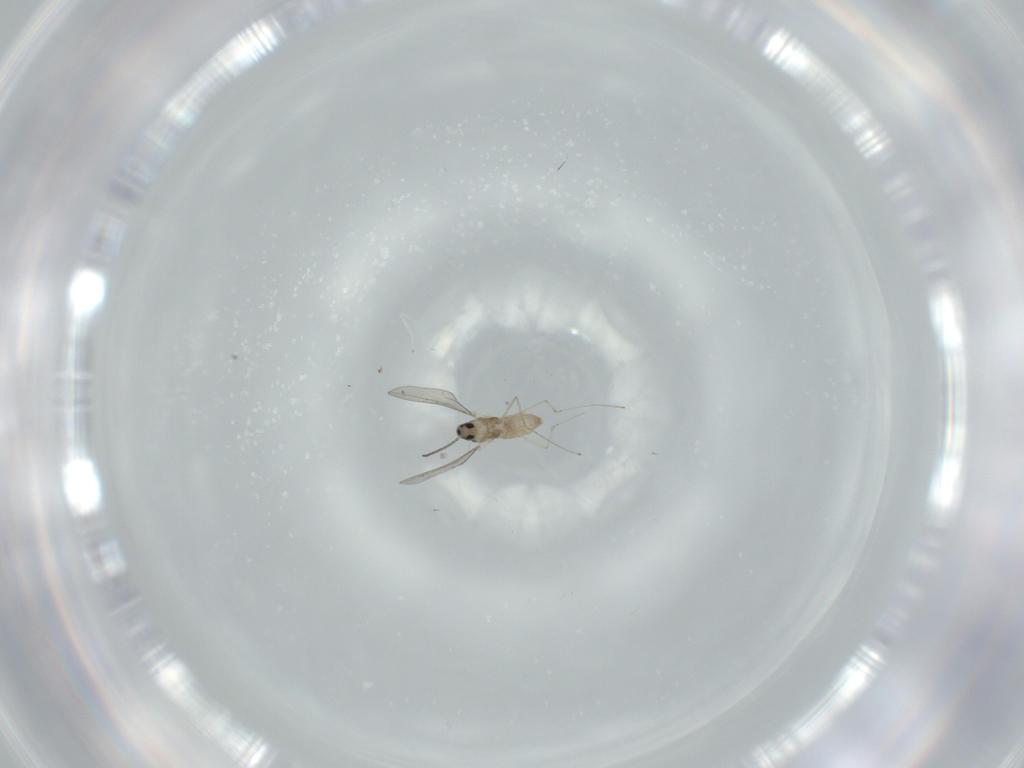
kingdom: Animalia
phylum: Arthropoda
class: Insecta
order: Diptera
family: Cecidomyiidae
